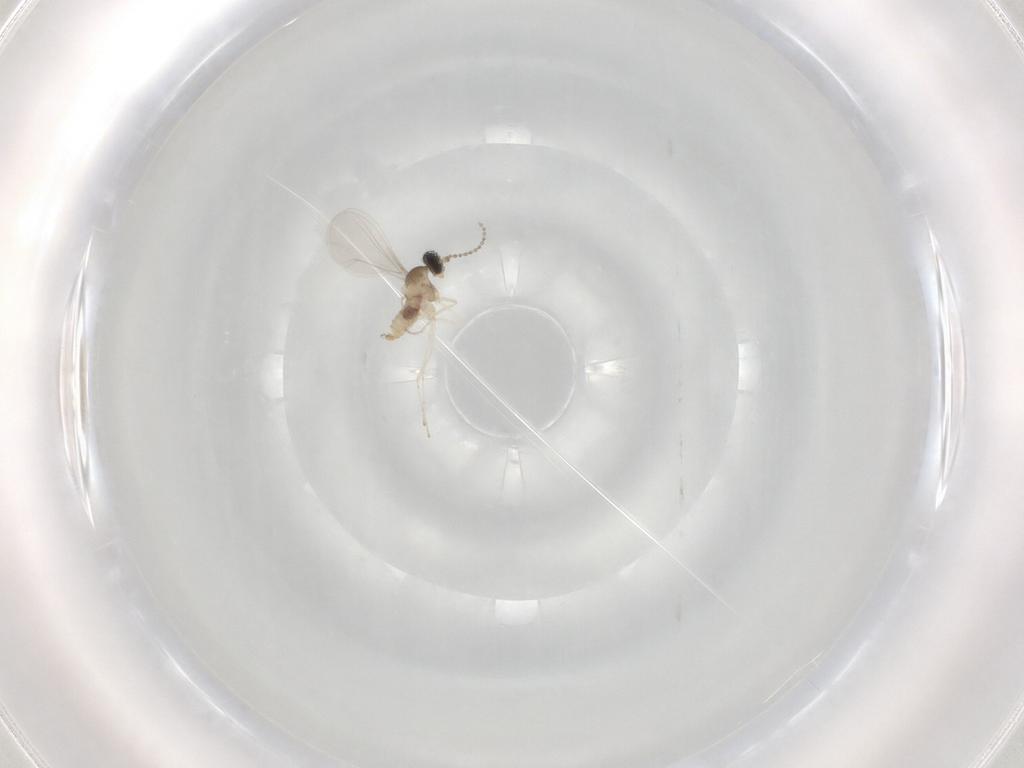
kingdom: Animalia
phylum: Arthropoda
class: Insecta
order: Diptera
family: Cecidomyiidae
